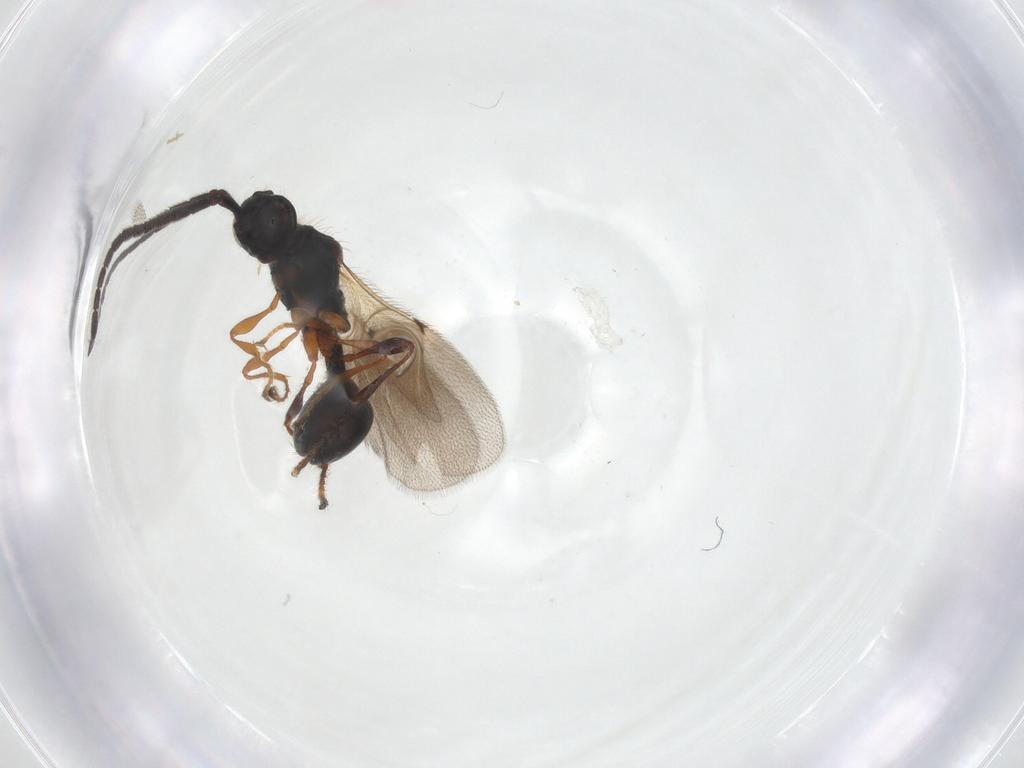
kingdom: Animalia
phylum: Arthropoda
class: Insecta
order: Hymenoptera
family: Diapriidae
